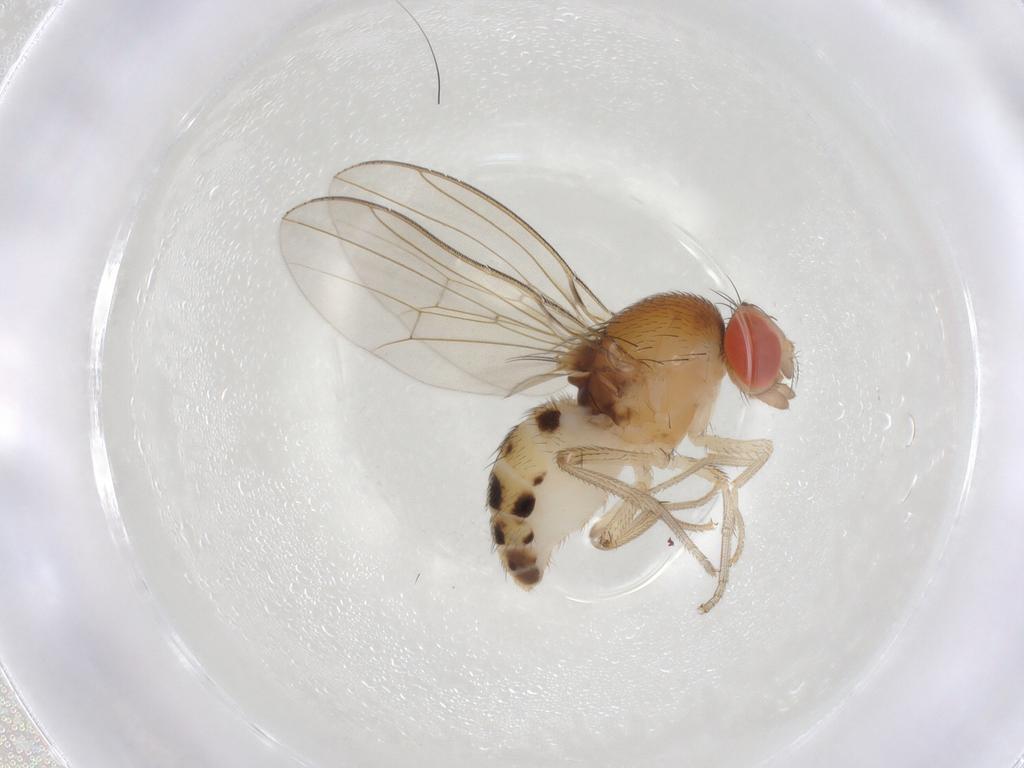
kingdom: Animalia
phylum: Arthropoda
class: Insecta
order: Diptera
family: Drosophilidae
